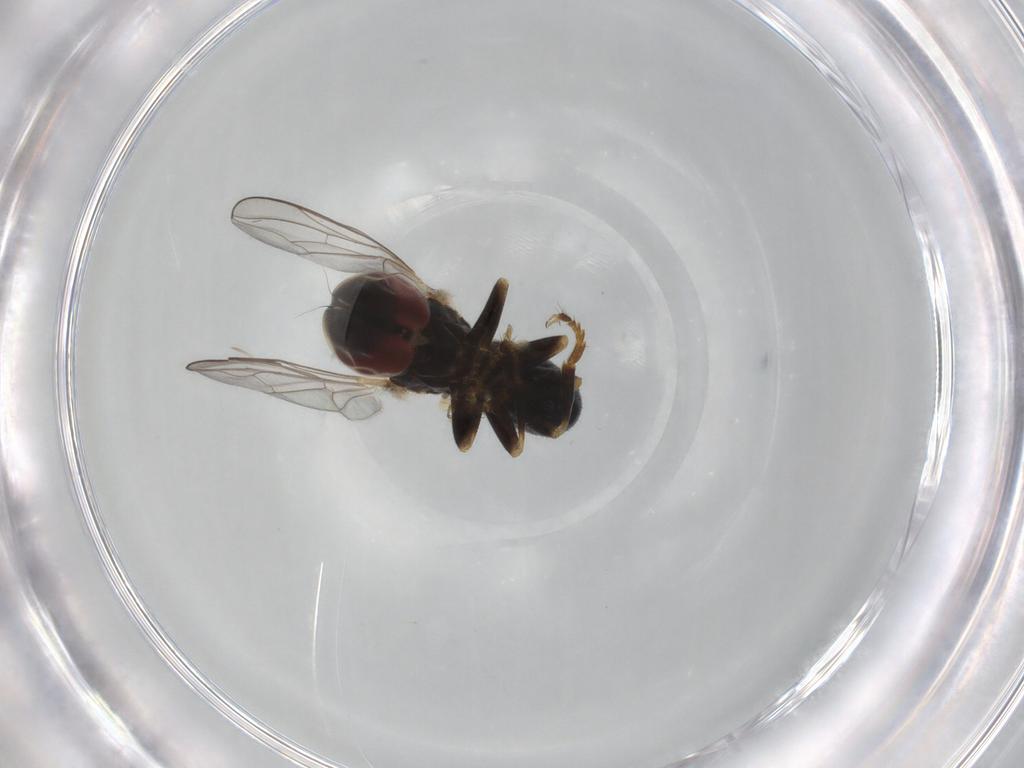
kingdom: Animalia
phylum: Arthropoda
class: Insecta
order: Diptera
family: Pipunculidae
